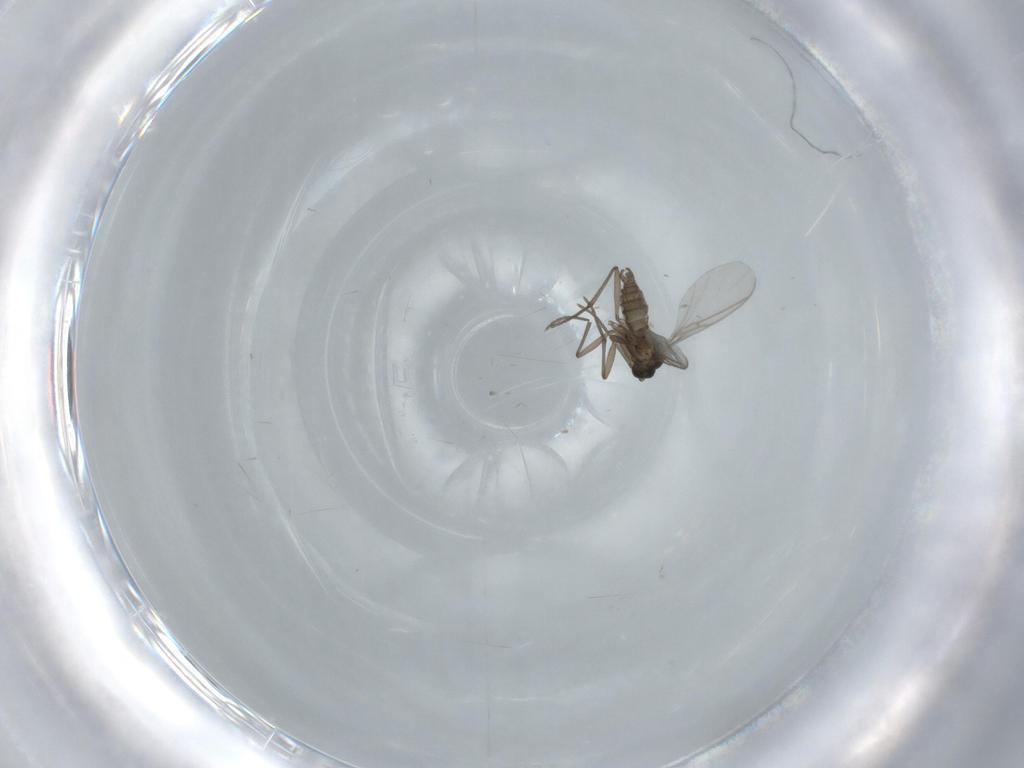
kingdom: Animalia
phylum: Arthropoda
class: Insecta
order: Diptera
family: Sciaridae
